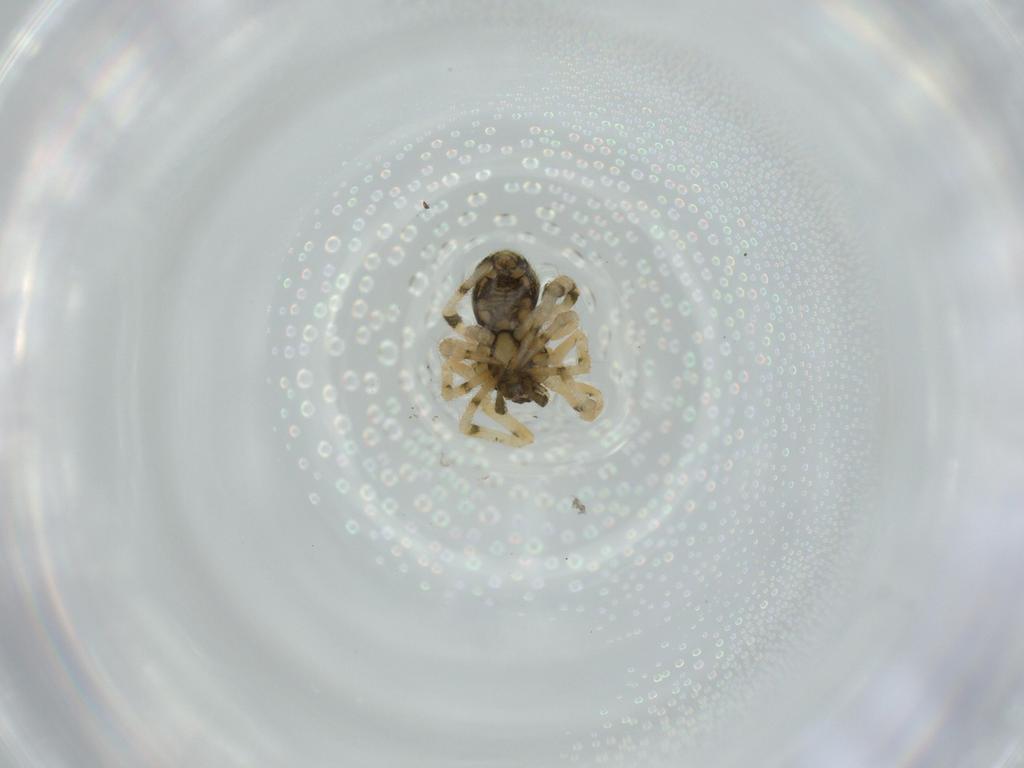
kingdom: Animalia
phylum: Arthropoda
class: Arachnida
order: Araneae
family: Theridiidae
